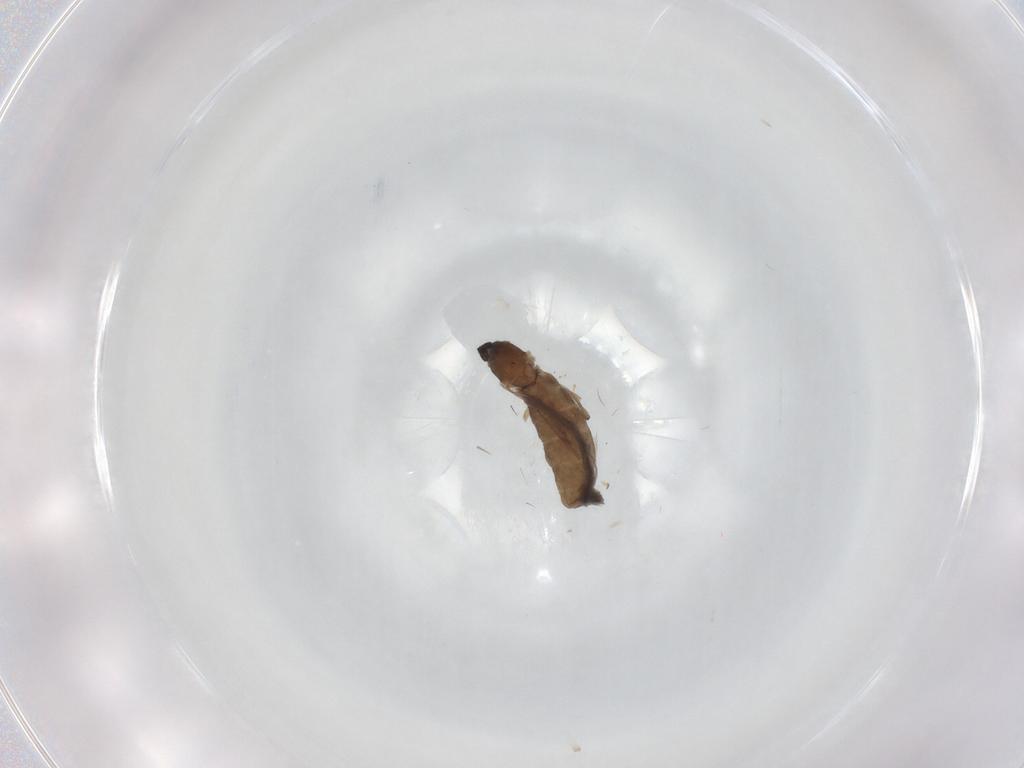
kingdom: Animalia
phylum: Arthropoda
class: Insecta
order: Diptera
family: Cecidomyiidae
